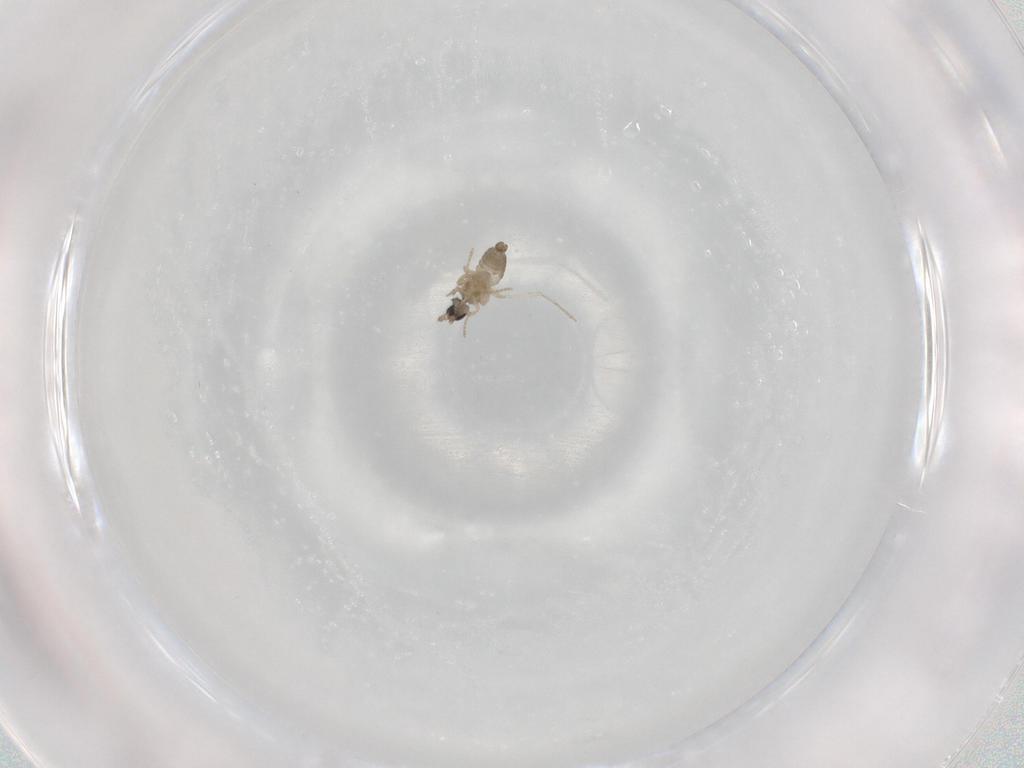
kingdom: Animalia
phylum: Arthropoda
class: Insecta
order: Diptera
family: Cecidomyiidae
